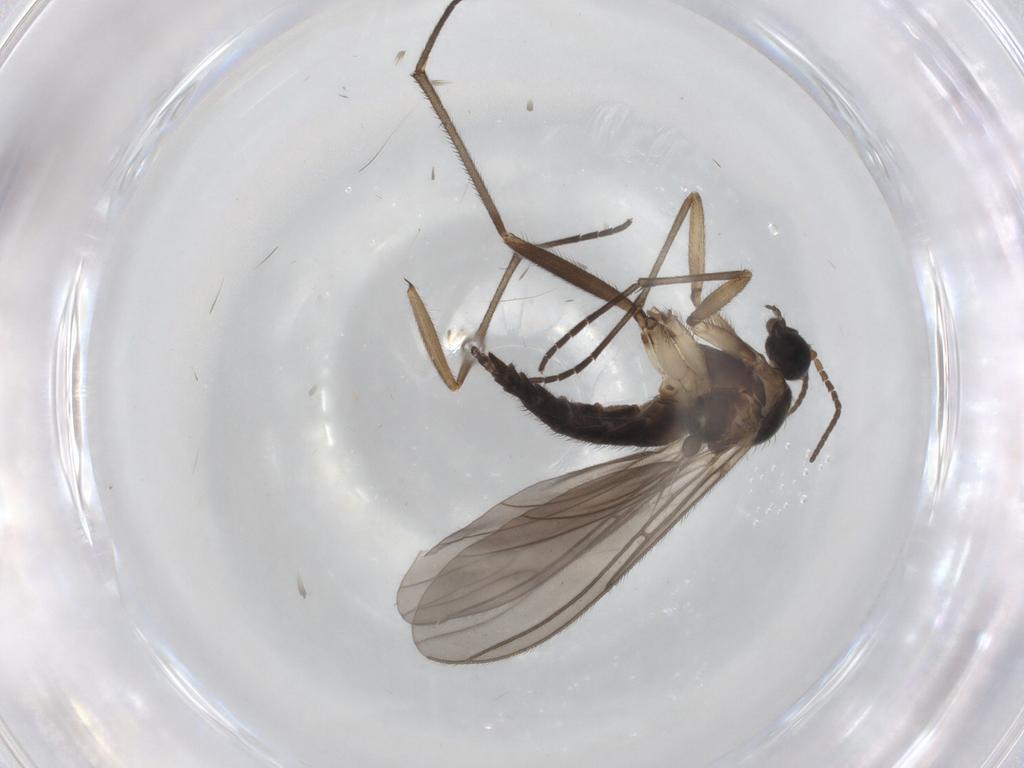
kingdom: Animalia
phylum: Arthropoda
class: Insecta
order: Diptera
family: Sciaridae
